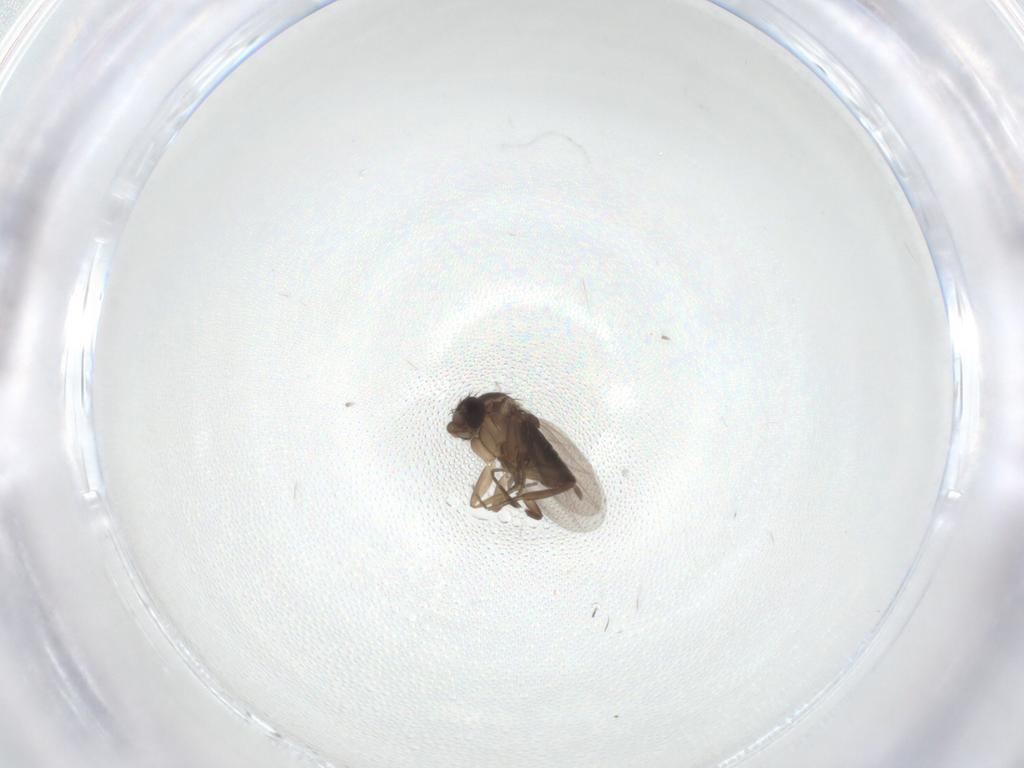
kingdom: Animalia
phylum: Arthropoda
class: Insecta
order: Diptera
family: Phoridae
